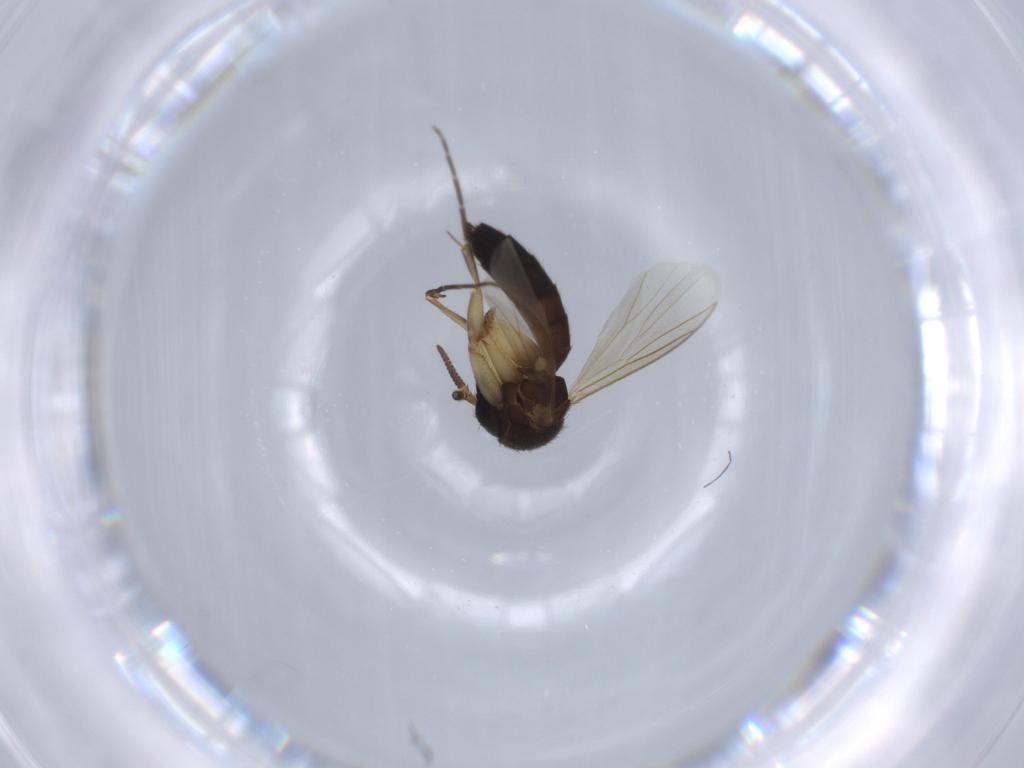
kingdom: Animalia
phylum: Arthropoda
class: Insecta
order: Diptera
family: Mycetophilidae
